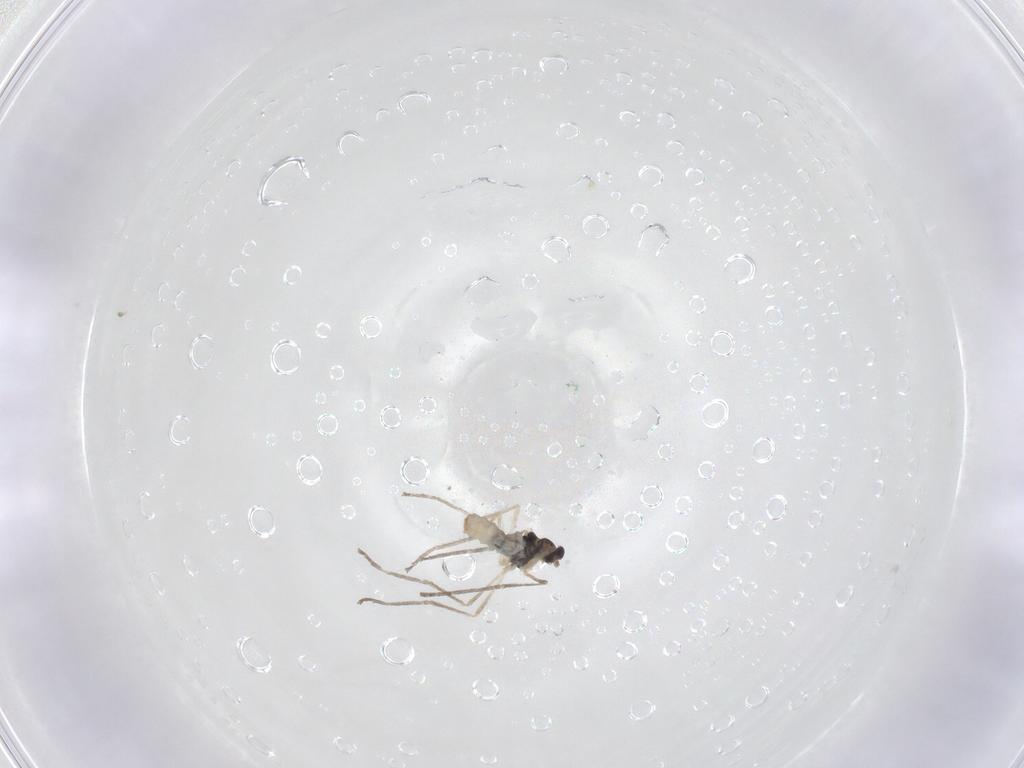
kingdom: Animalia
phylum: Arthropoda
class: Insecta
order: Diptera
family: Cecidomyiidae
